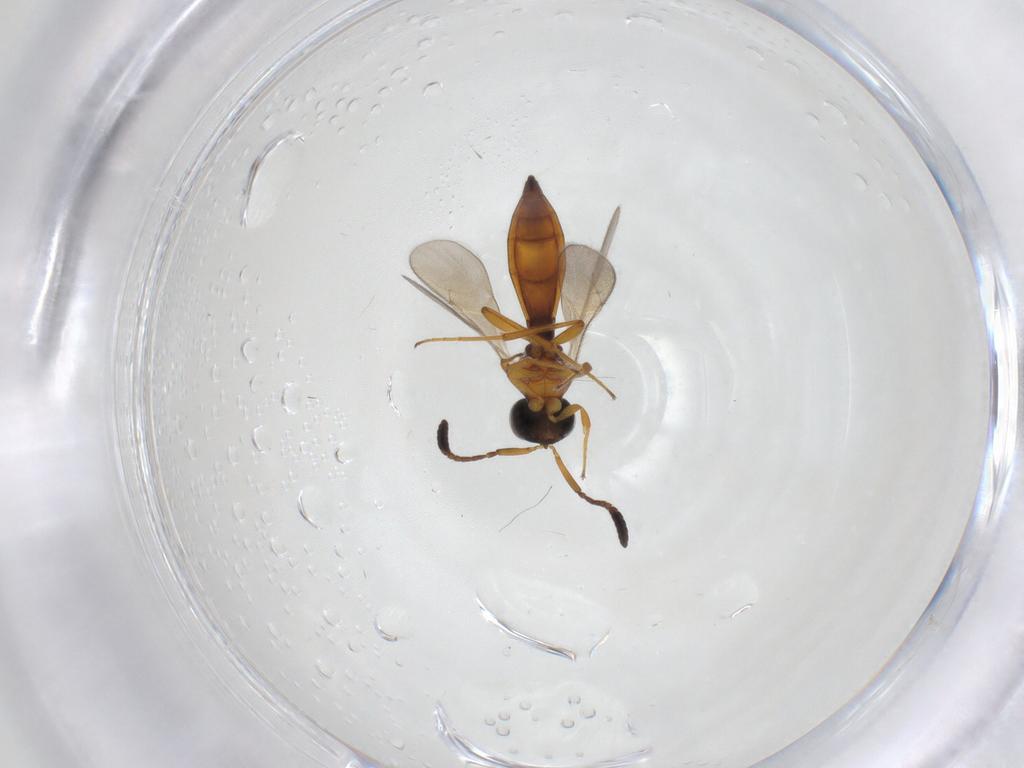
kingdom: Animalia
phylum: Arthropoda
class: Insecta
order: Hymenoptera
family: Scelionidae
